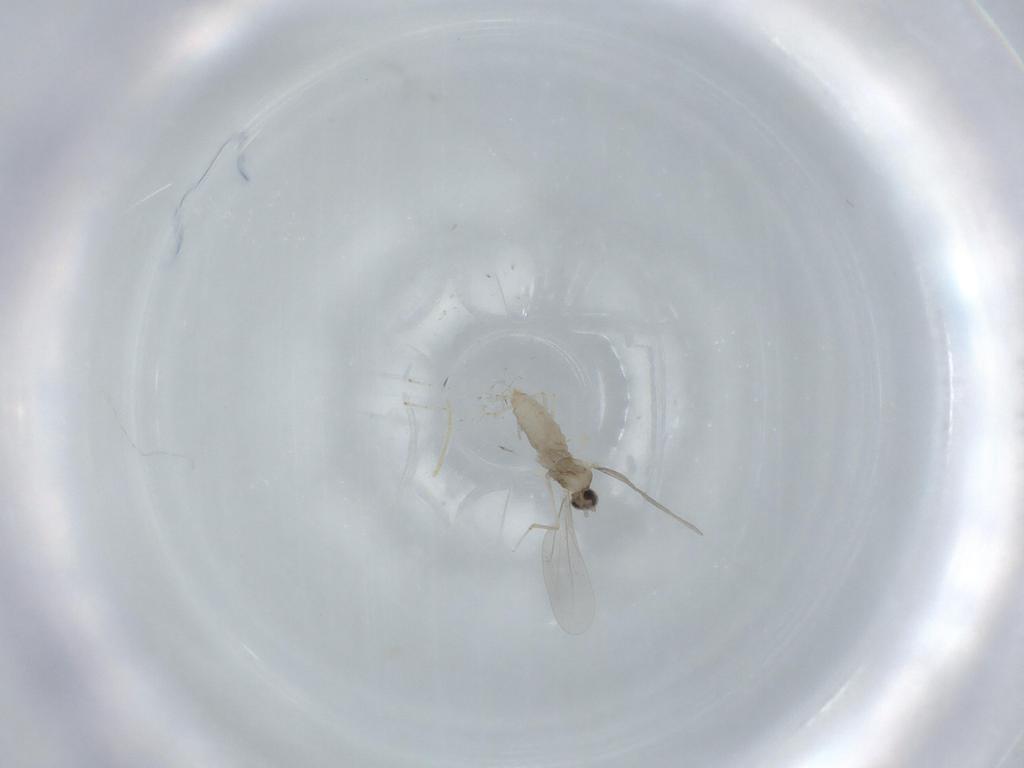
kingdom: Animalia
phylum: Arthropoda
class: Insecta
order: Diptera
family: Cecidomyiidae
